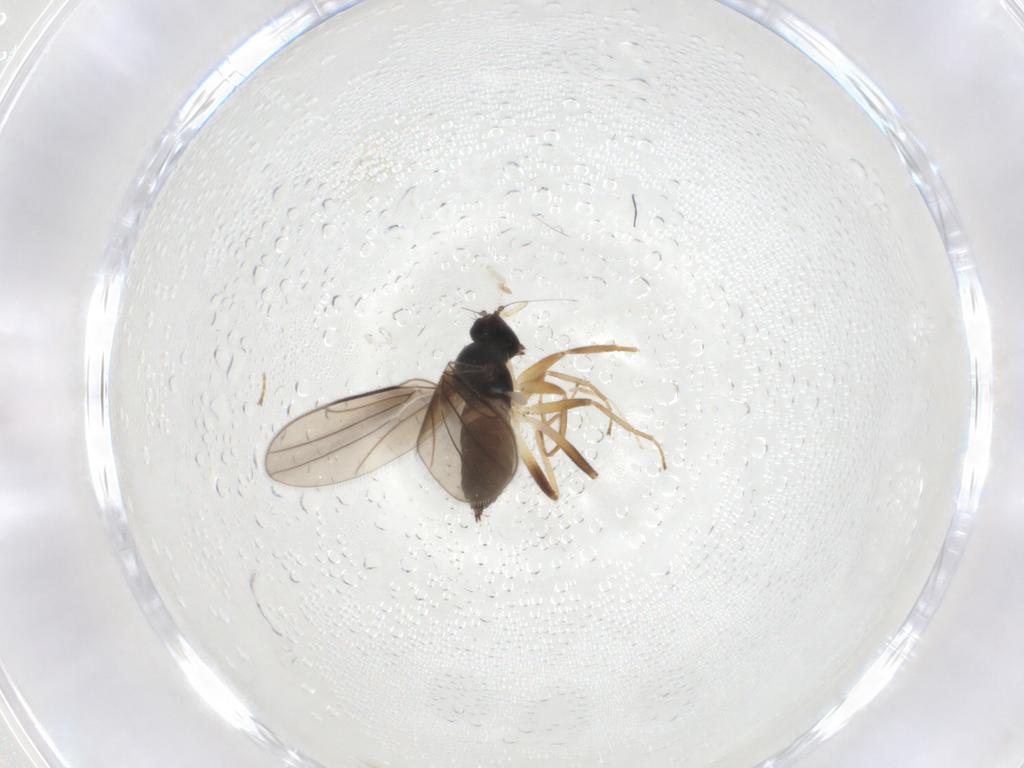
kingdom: Animalia
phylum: Arthropoda
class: Insecta
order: Diptera
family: Hybotidae
